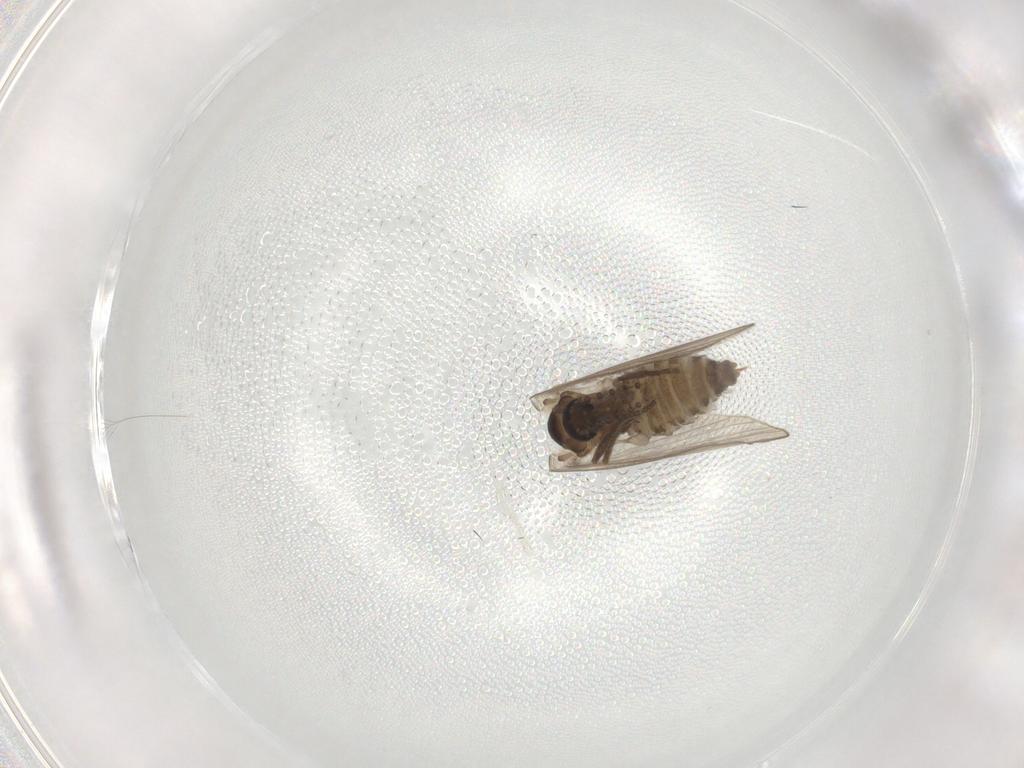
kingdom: Animalia
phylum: Arthropoda
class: Insecta
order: Diptera
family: Psychodidae
